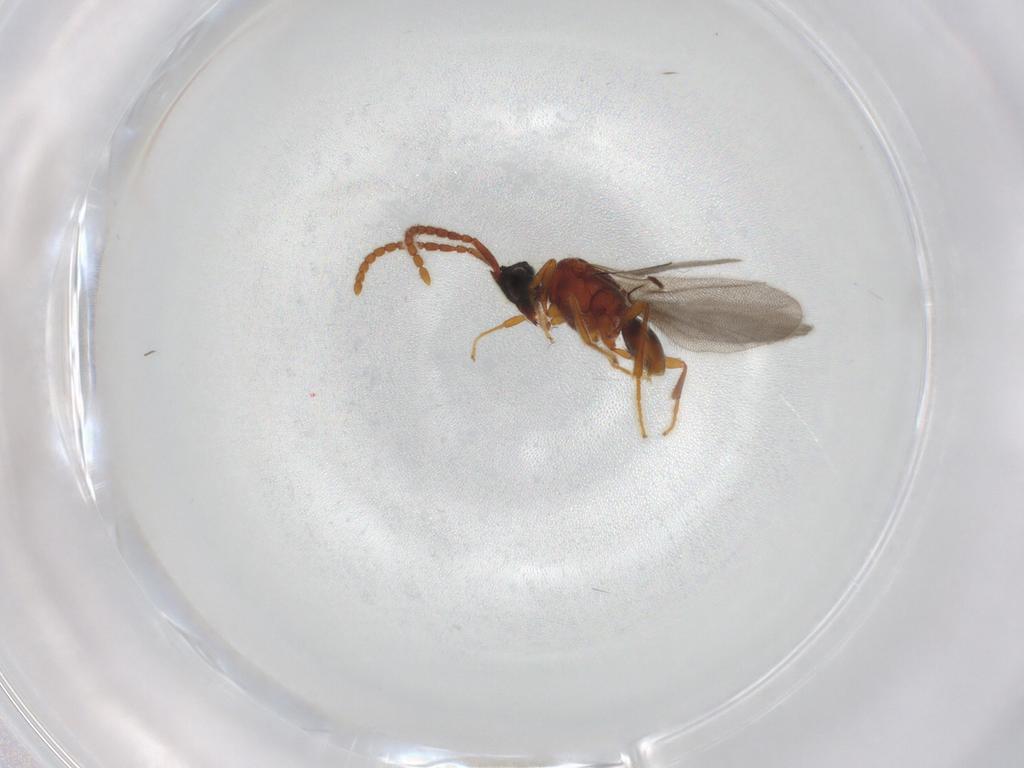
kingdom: Animalia
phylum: Arthropoda
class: Insecta
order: Hymenoptera
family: Diapriidae
